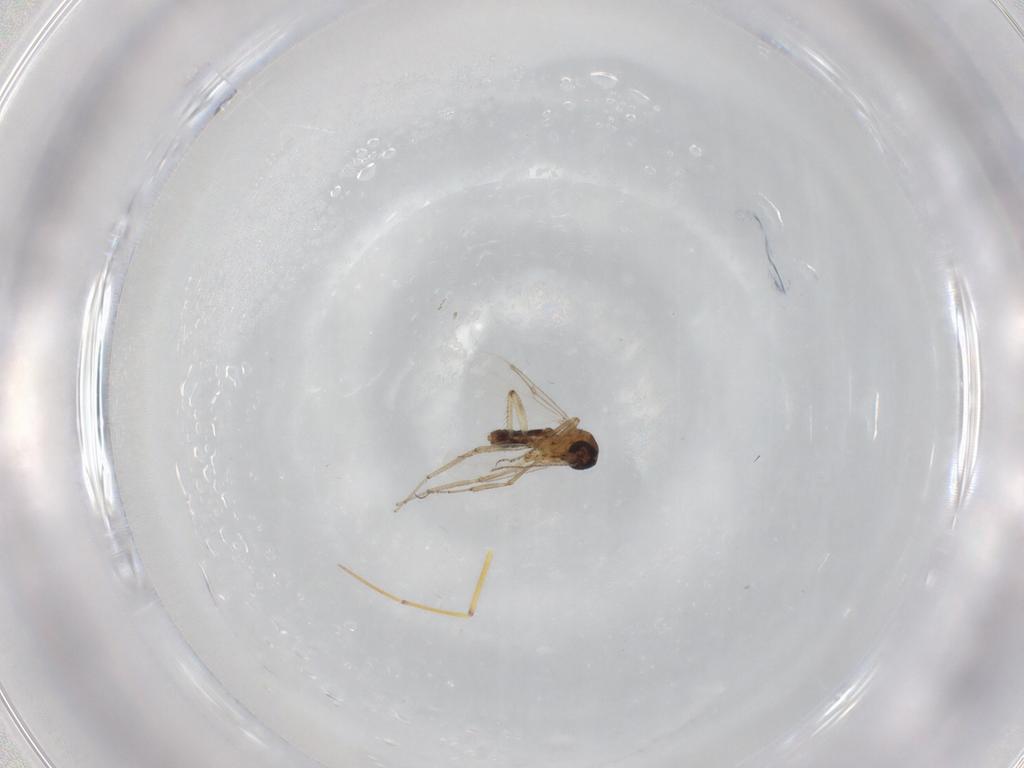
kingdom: Animalia
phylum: Arthropoda
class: Insecta
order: Diptera
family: Ceratopogonidae
